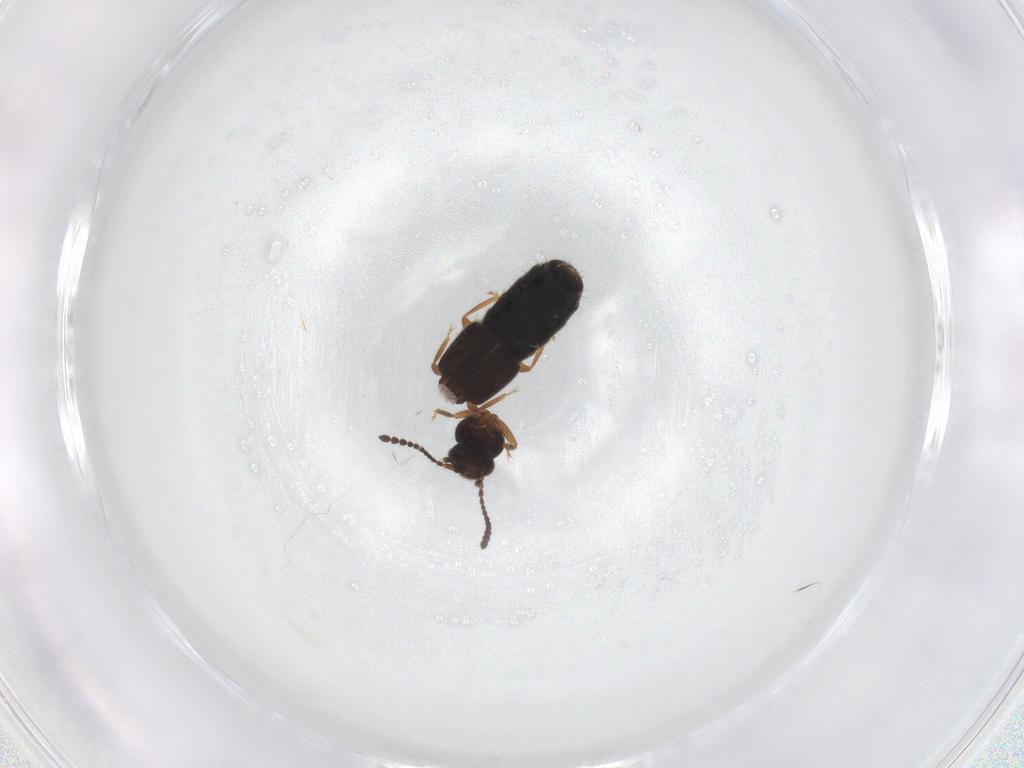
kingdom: Animalia
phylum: Arthropoda
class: Insecta
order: Coleoptera
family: Staphylinidae
